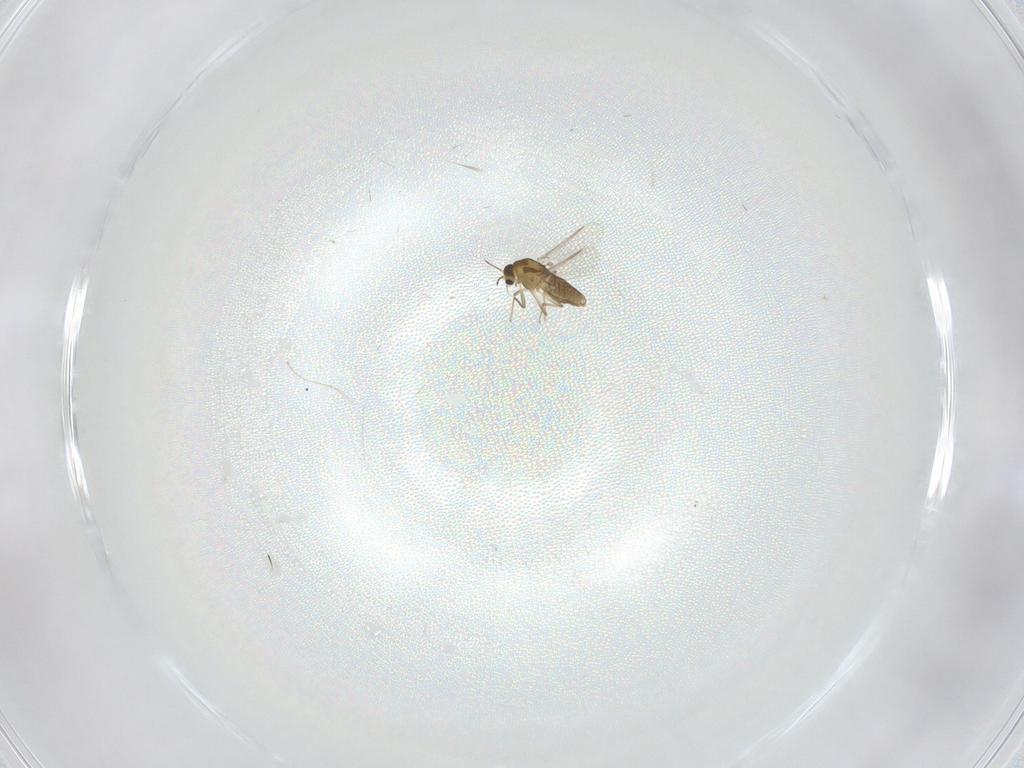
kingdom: Animalia
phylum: Arthropoda
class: Insecta
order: Diptera
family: Chironomidae
